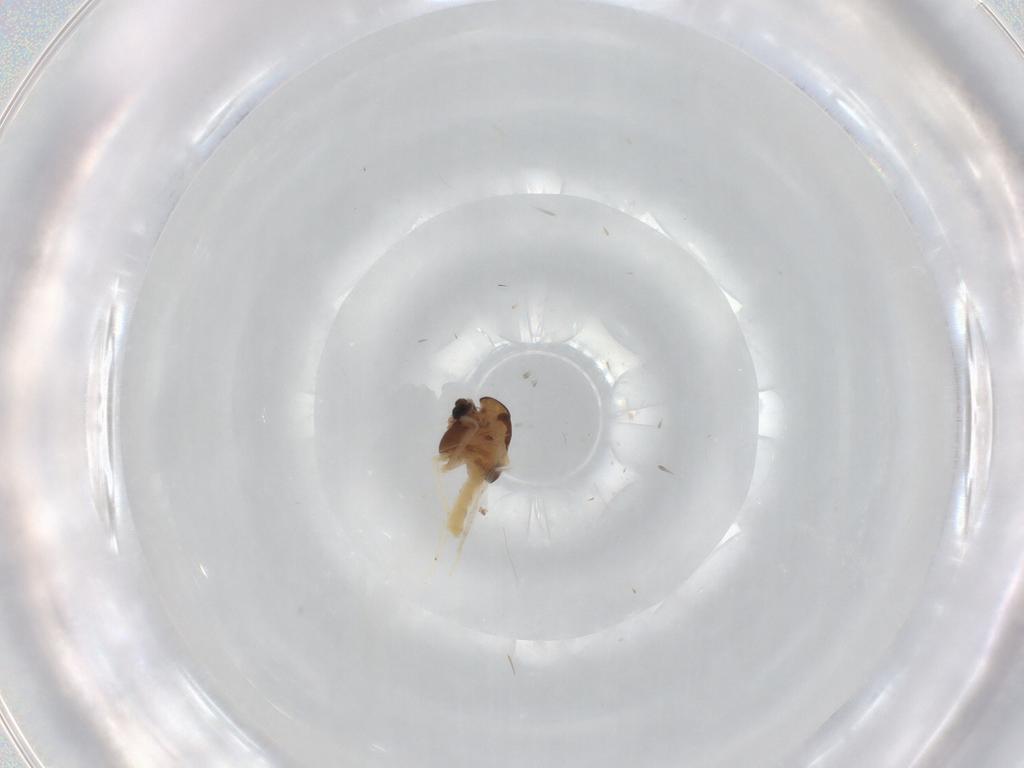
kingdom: Animalia
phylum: Arthropoda
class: Insecta
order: Diptera
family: Chironomidae
